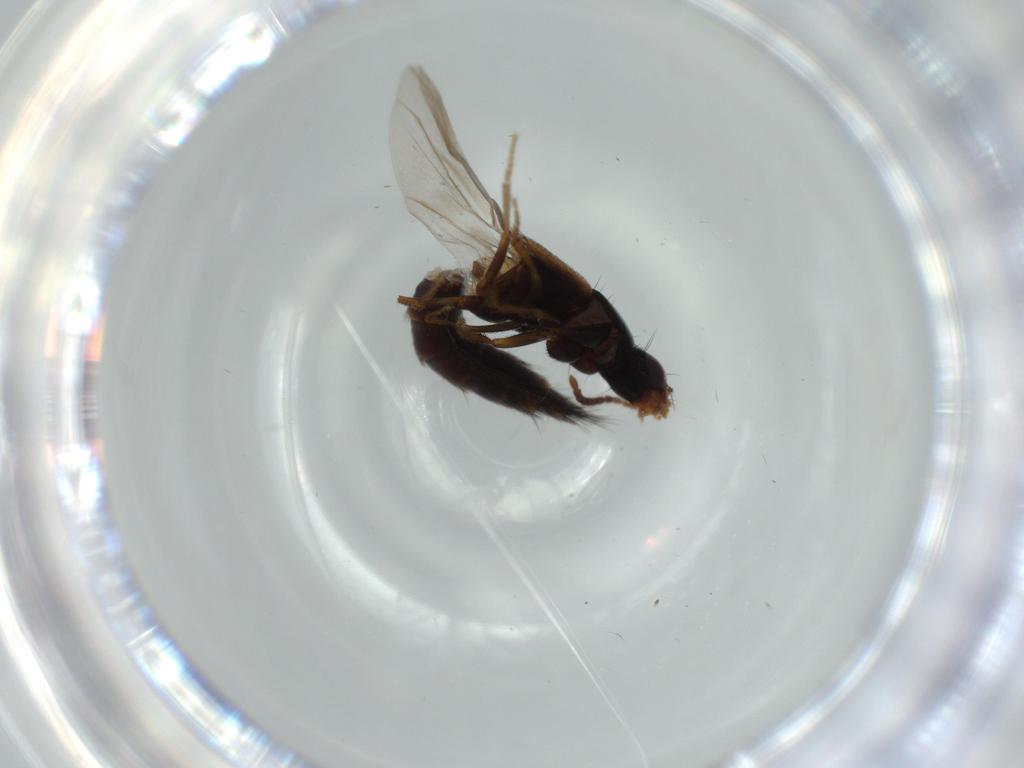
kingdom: Animalia
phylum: Arthropoda
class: Insecta
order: Coleoptera
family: Staphylinidae
